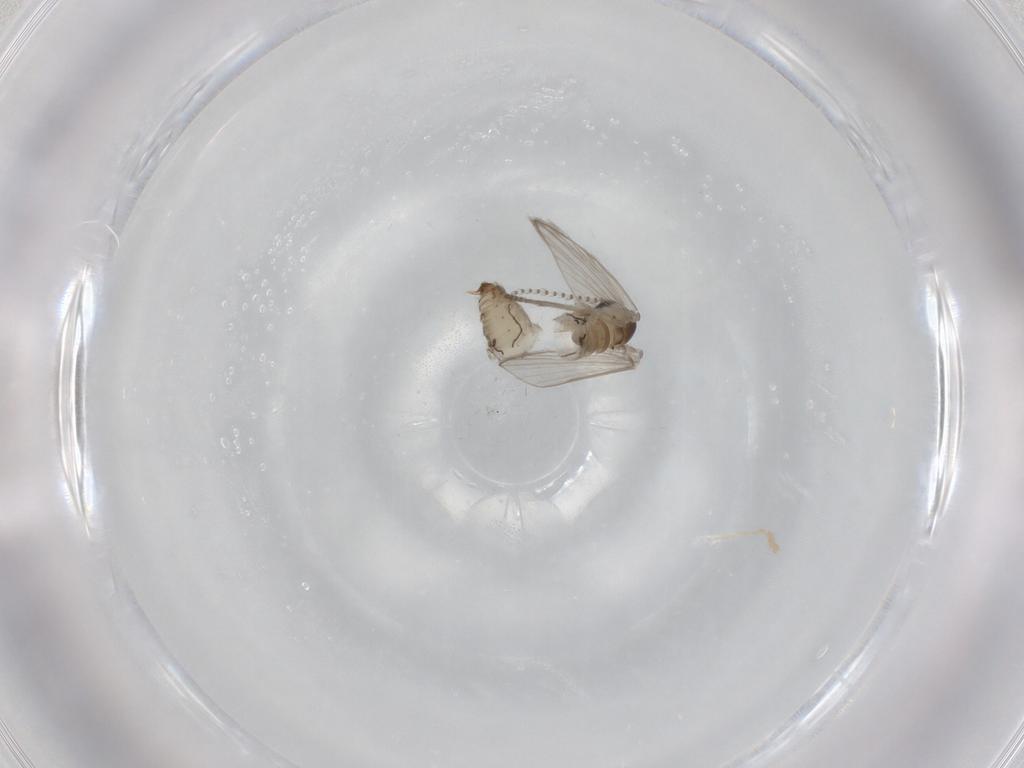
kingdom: Animalia
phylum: Arthropoda
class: Insecta
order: Diptera
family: Psychodidae
